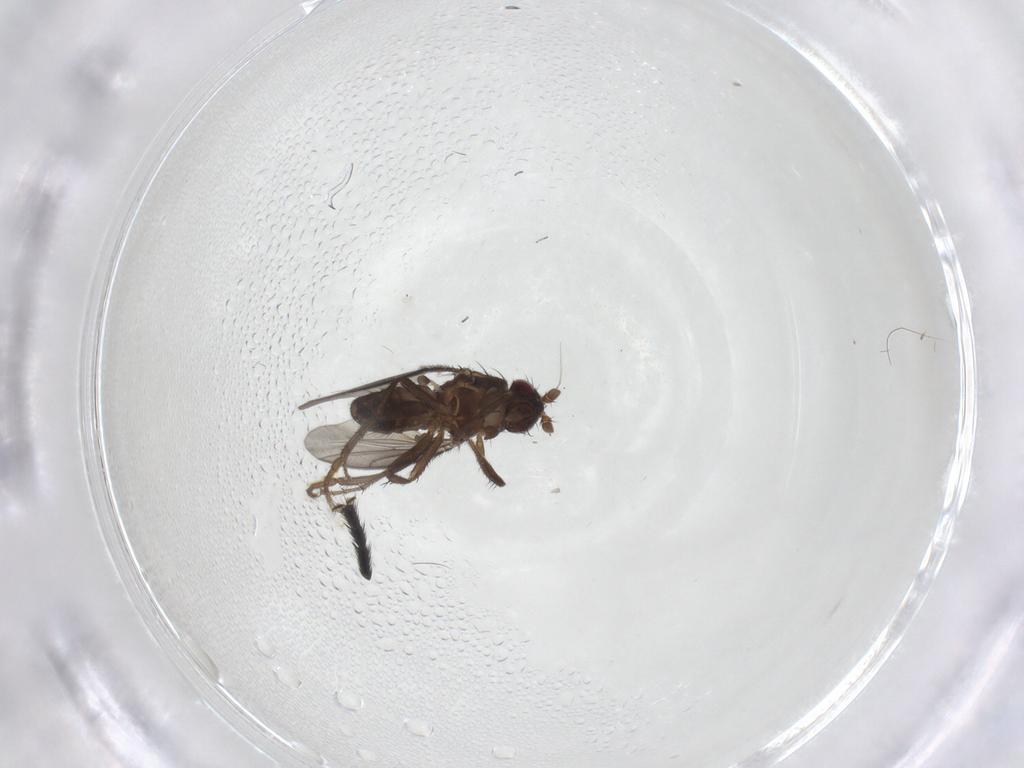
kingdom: Animalia
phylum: Arthropoda
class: Insecta
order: Diptera
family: Sphaeroceridae
